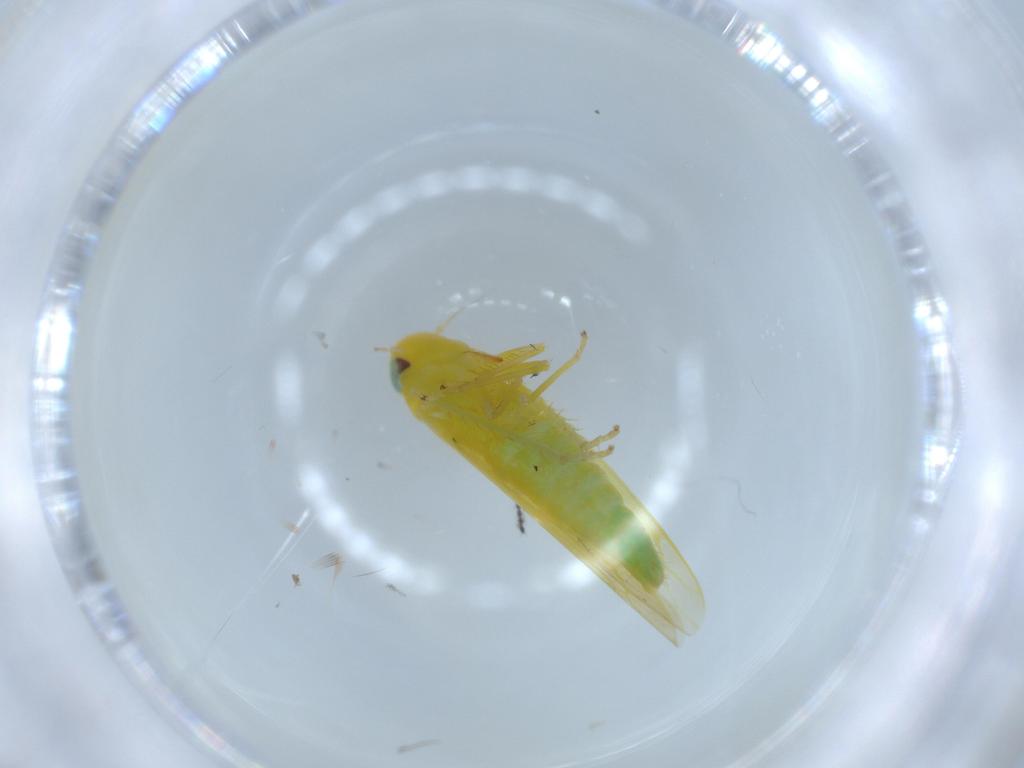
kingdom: Animalia
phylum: Arthropoda
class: Insecta
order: Hemiptera
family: Cicadellidae
